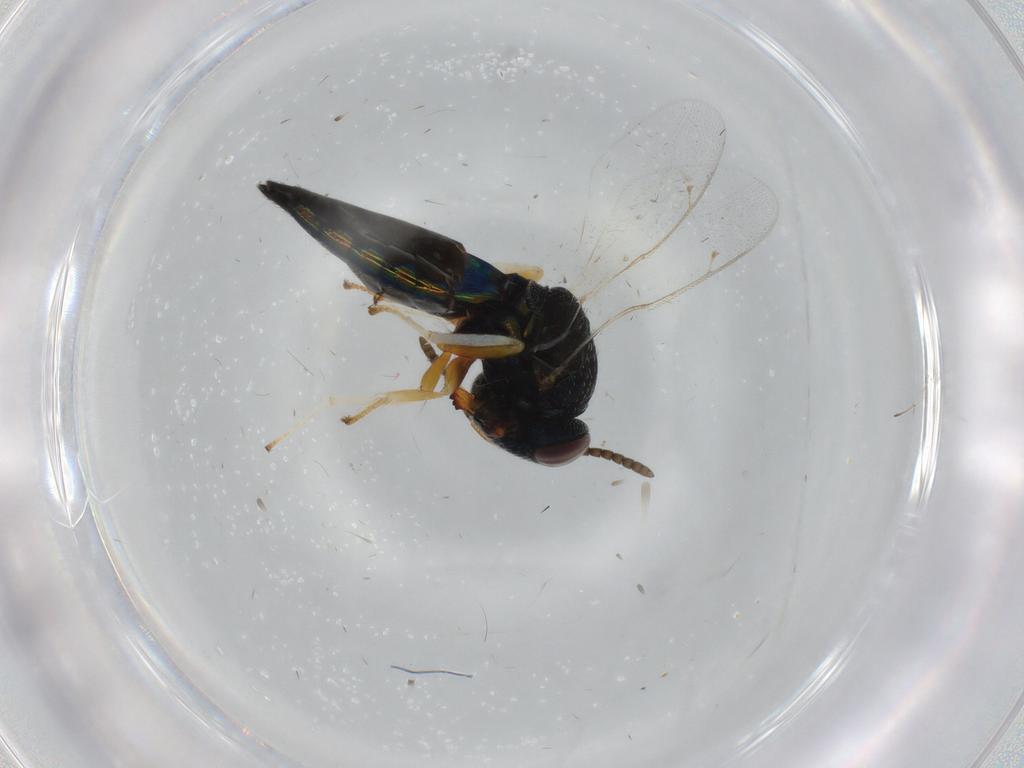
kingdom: Animalia
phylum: Arthropoda
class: Insecta
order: Hymenoptera
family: Pteromalidae
